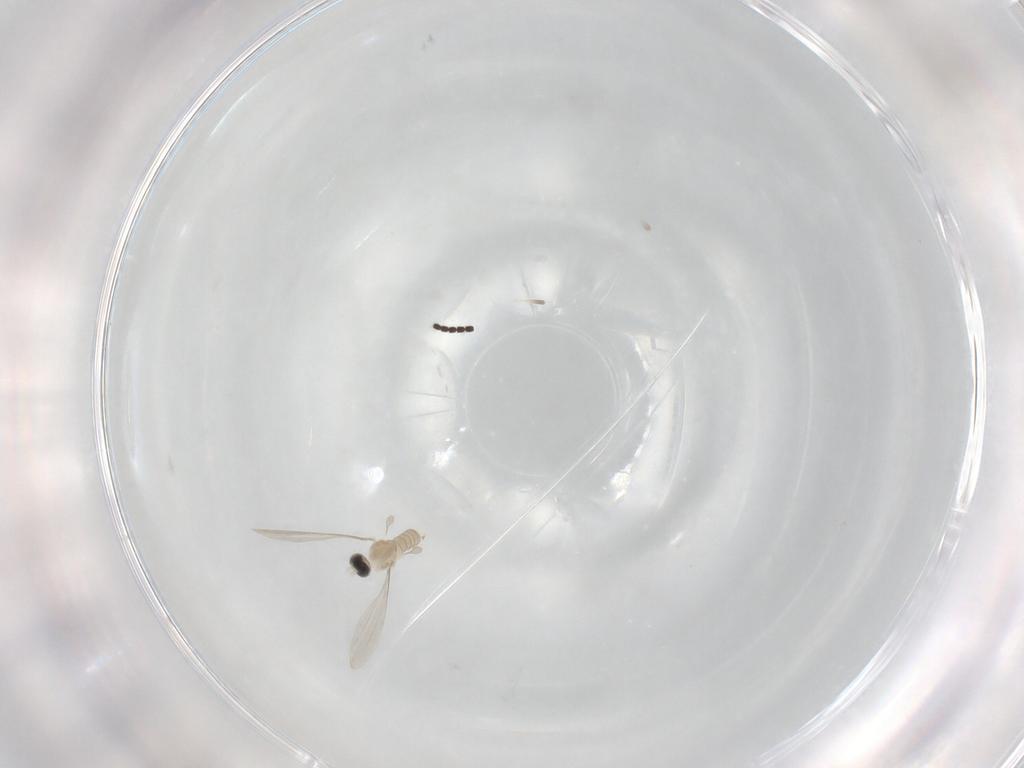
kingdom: Animalia
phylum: Arthropoda
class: Insecta
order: Diptera
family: Cecidomyiidae
